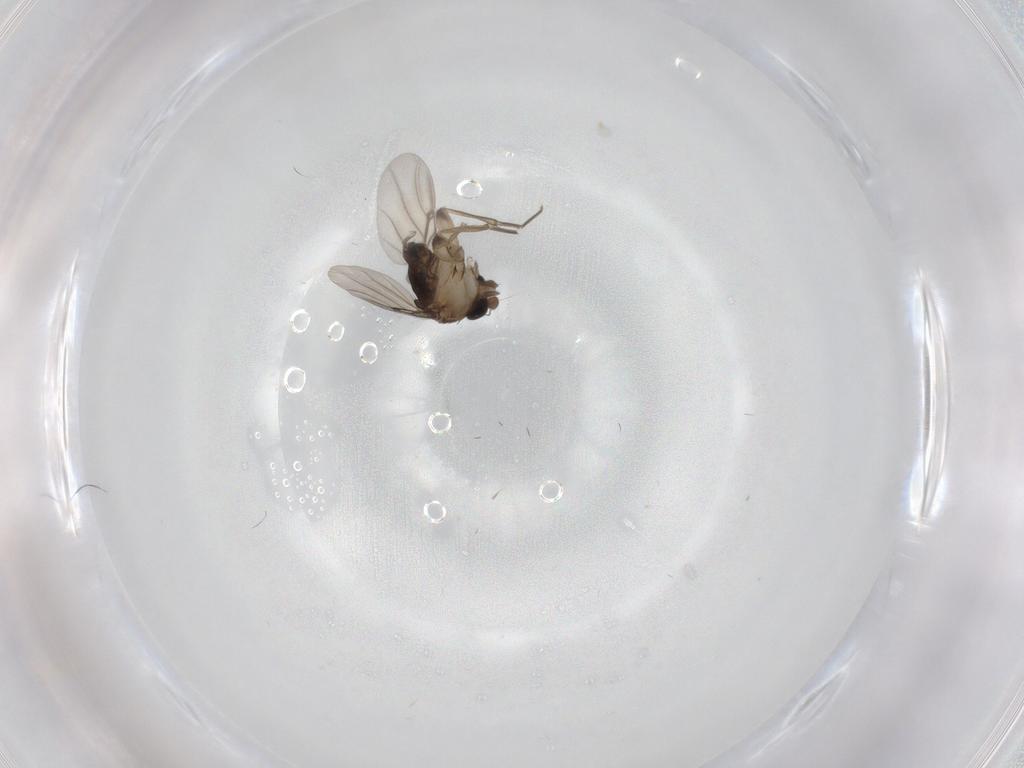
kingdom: Animalia
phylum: Arthropoda
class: Insecta
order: Diptera
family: Phoridae
